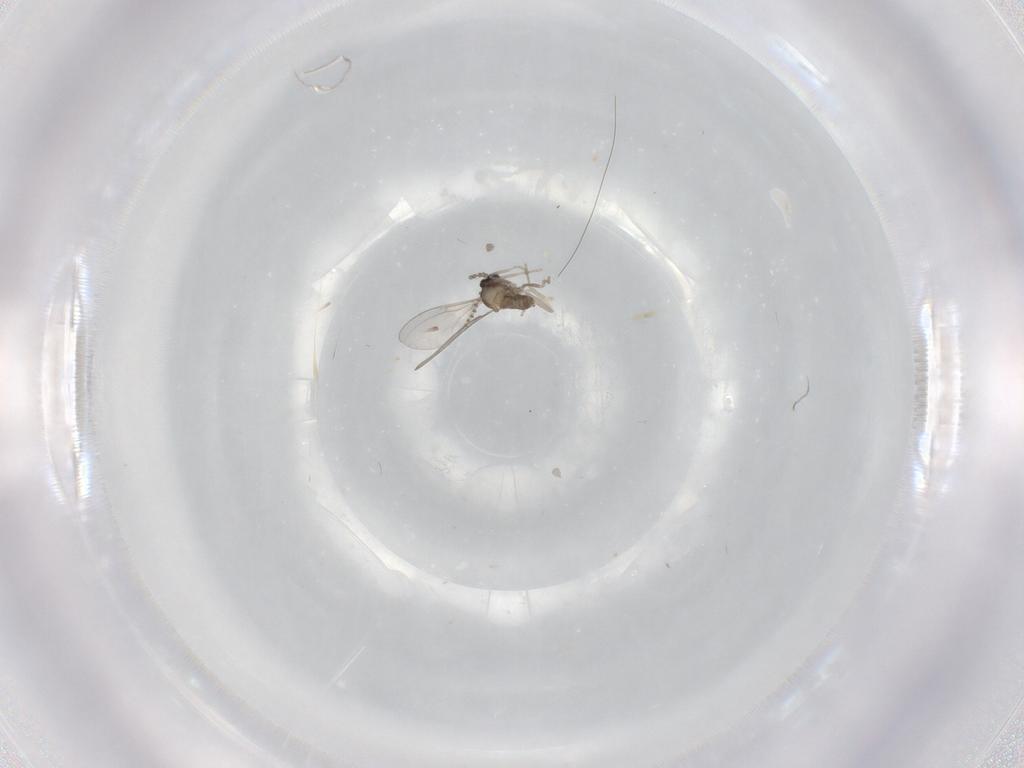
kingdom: Animalia
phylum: Arthropoda
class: Insecta
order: Diptera
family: Cecidomyiidae
